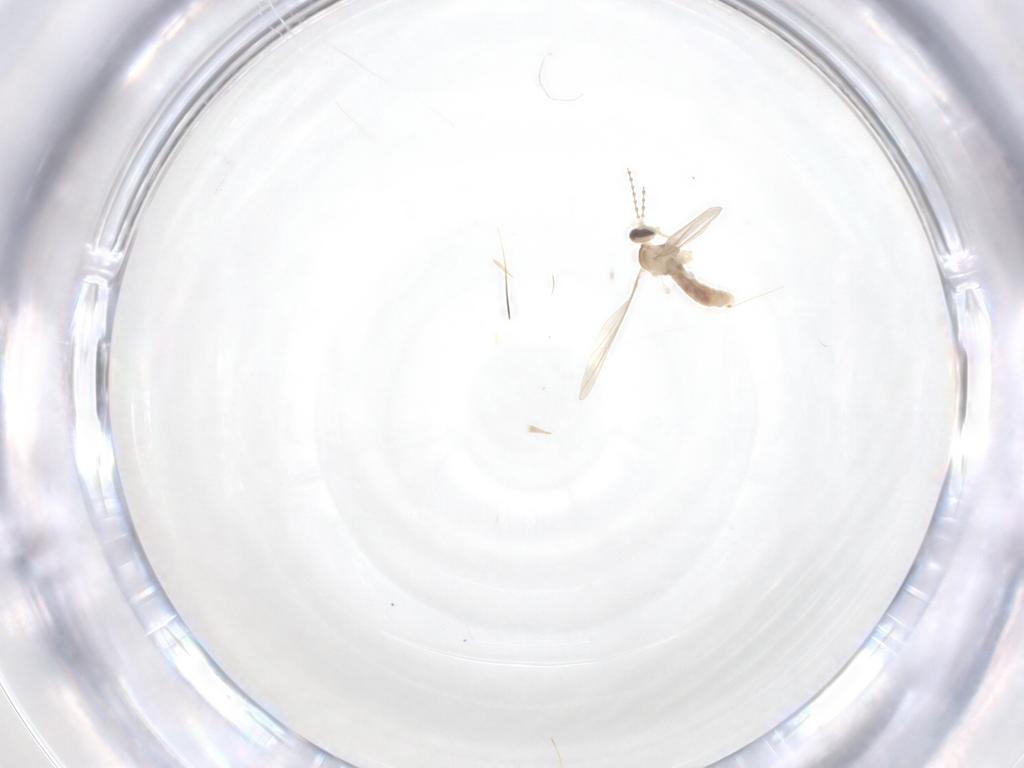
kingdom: Animalia
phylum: Arthropoda
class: Insecta
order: Diptera
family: Cecidomyiidae
